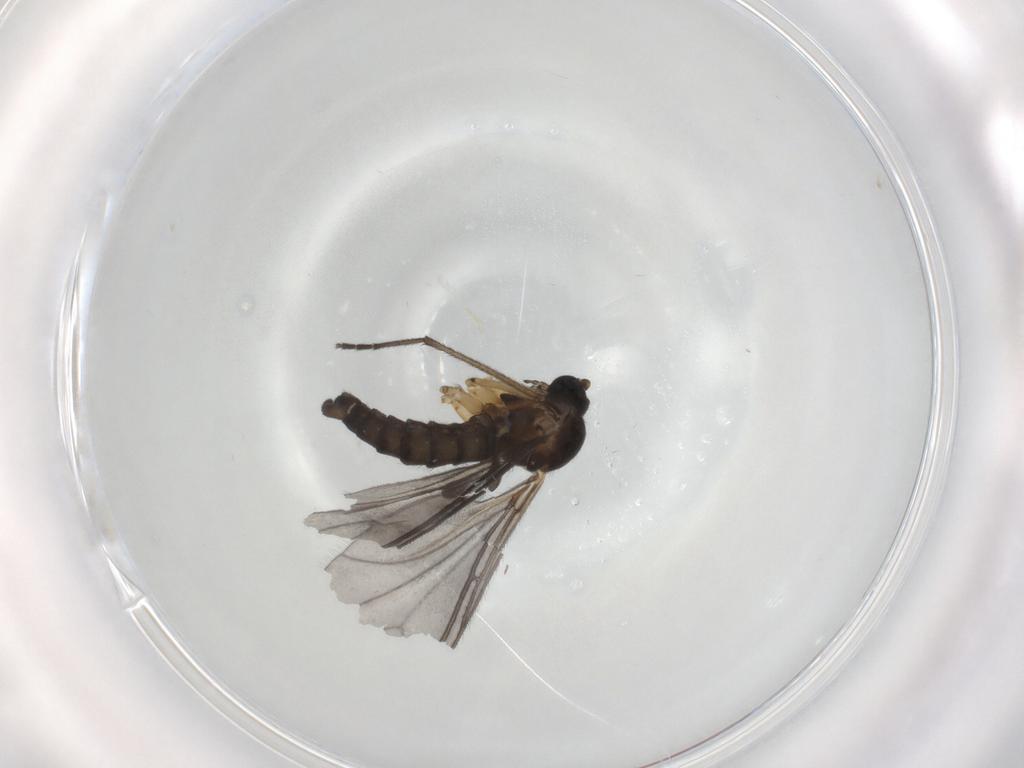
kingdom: Animalia
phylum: Arthropoda
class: Insecta
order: Diptera
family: Sciaridae
